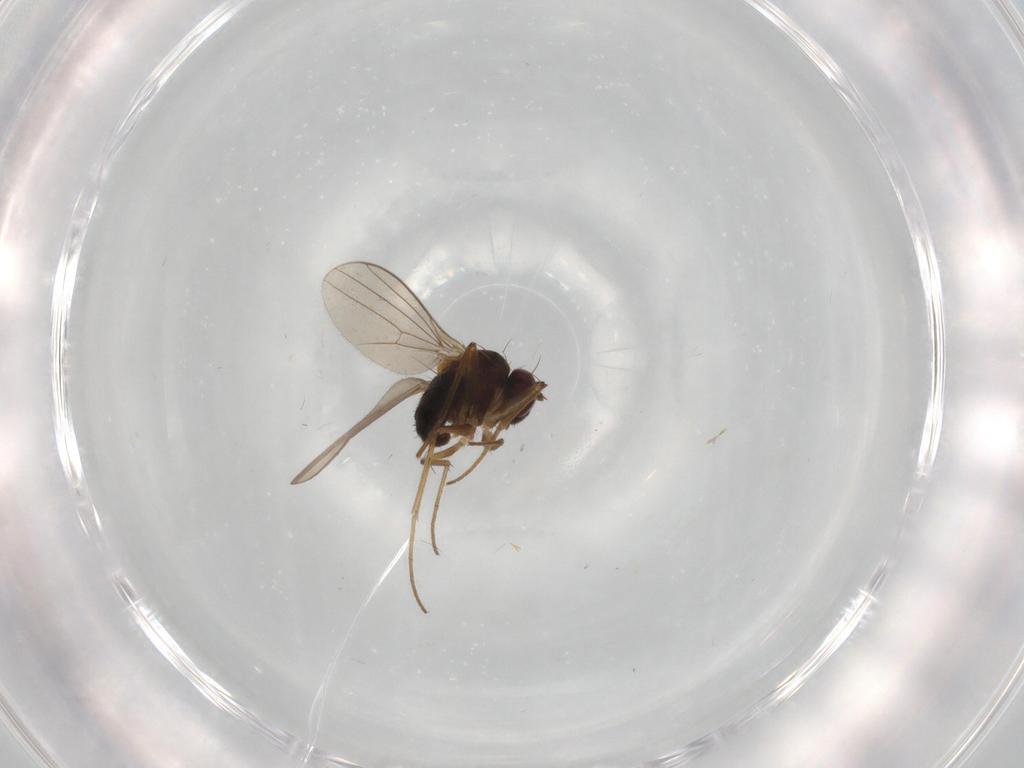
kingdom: Animalia
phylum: Arthropoda
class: Insecta
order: Diptera
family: Dolichopodidae
